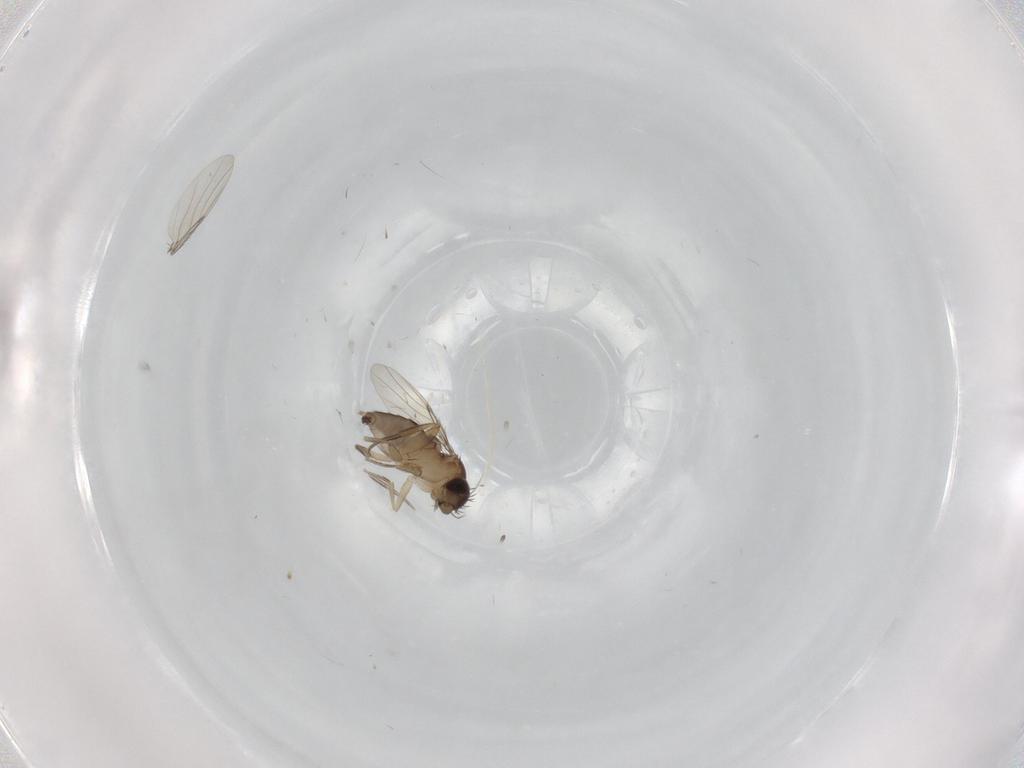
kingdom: Animalia
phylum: Arthropoda
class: Insecta
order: Diptera
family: Phoridae
